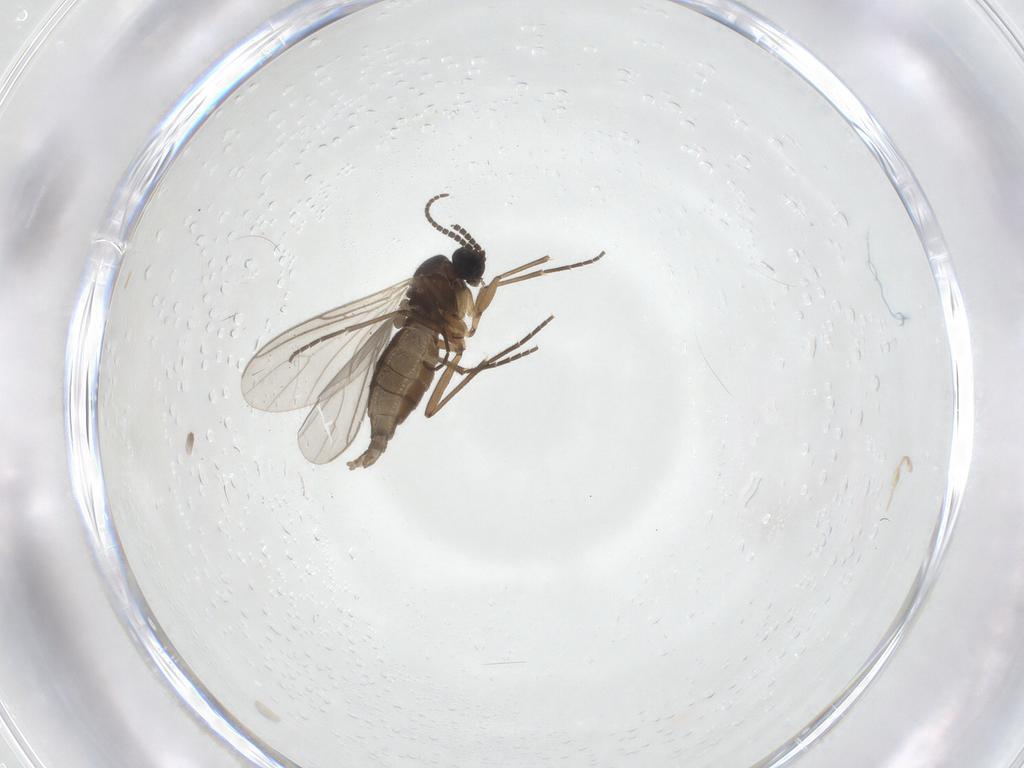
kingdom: Animalia
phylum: Arthropoda
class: Insecta
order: Diptera
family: Sciaridae
